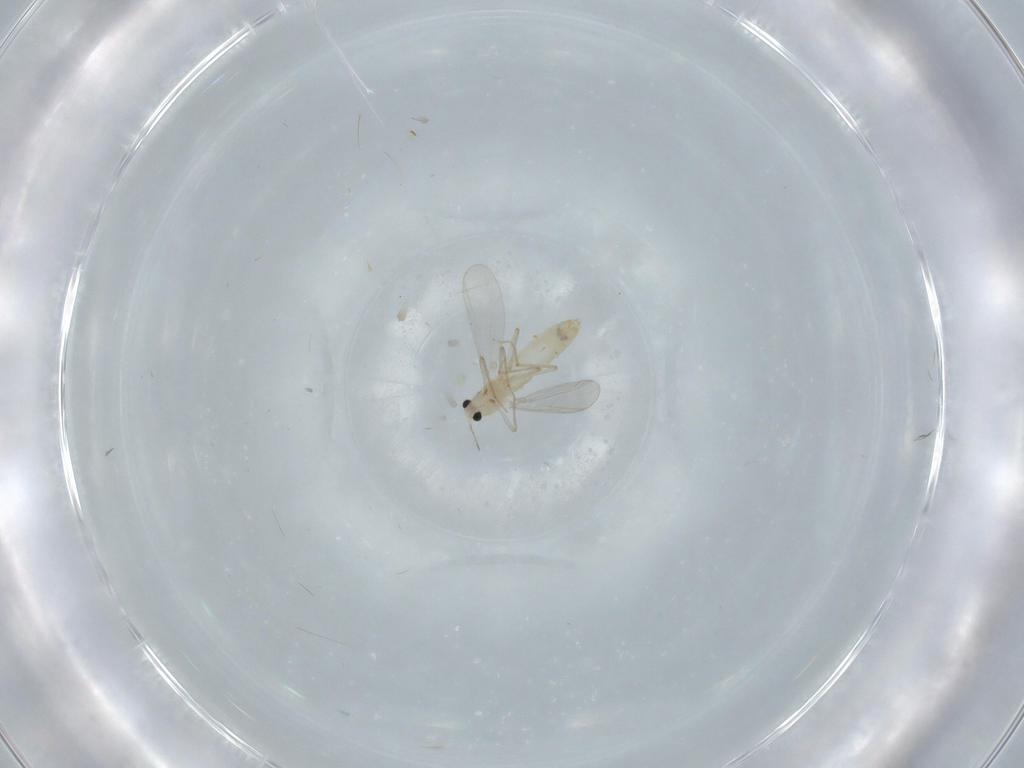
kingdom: Animalia
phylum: Arthropoda
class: Insecta
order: Diptera
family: Chironomidae
